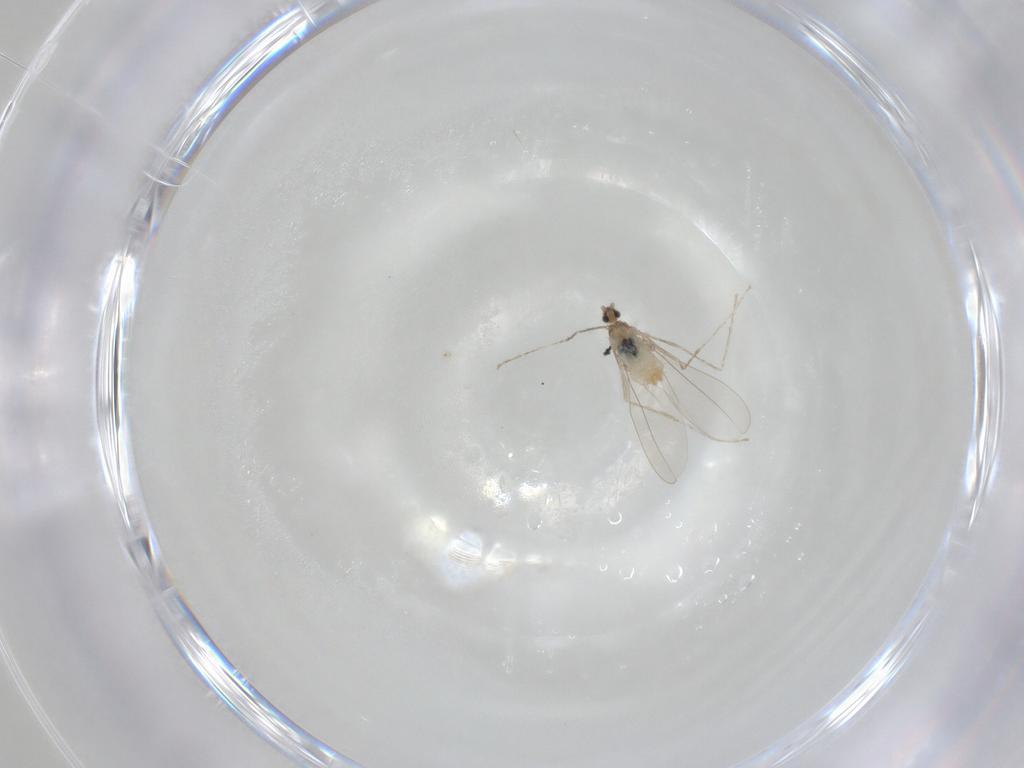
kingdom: Animalia
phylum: Arthropoda
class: Insecta
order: Diptera
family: Cecidomyiidae
